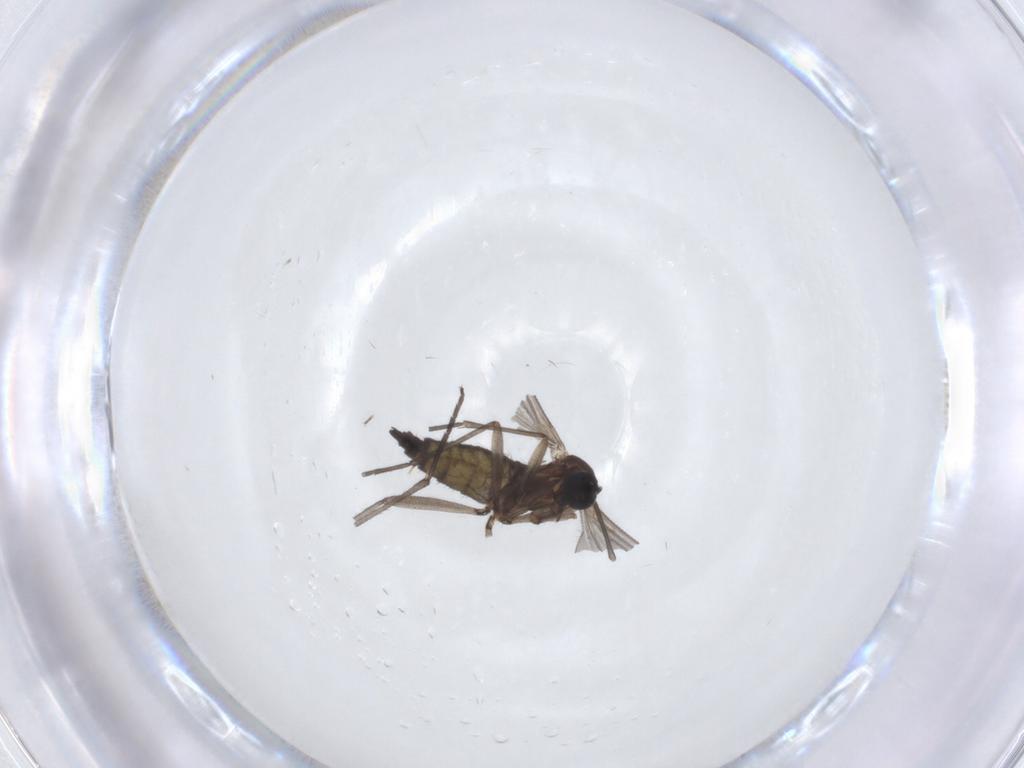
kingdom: Animalia
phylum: Arthropoda
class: Insecta
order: Diptera
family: Sciaridae
